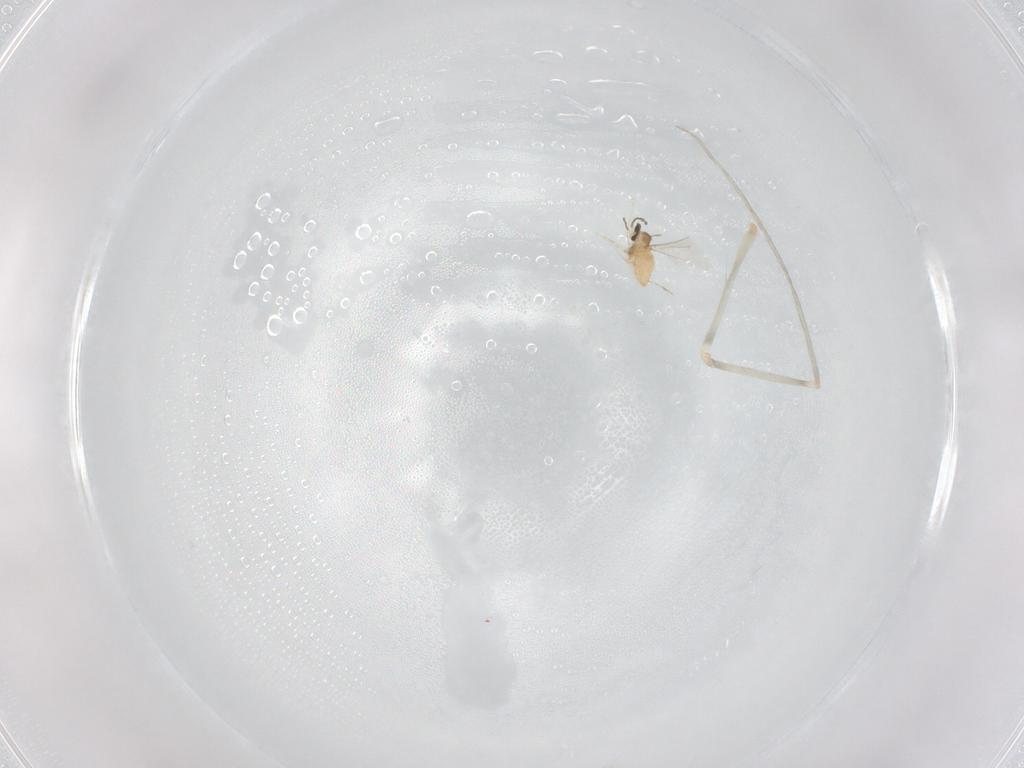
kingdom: Animalia
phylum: Arthropoda
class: Insecta
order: Diptera
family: Cecidomyiidae
